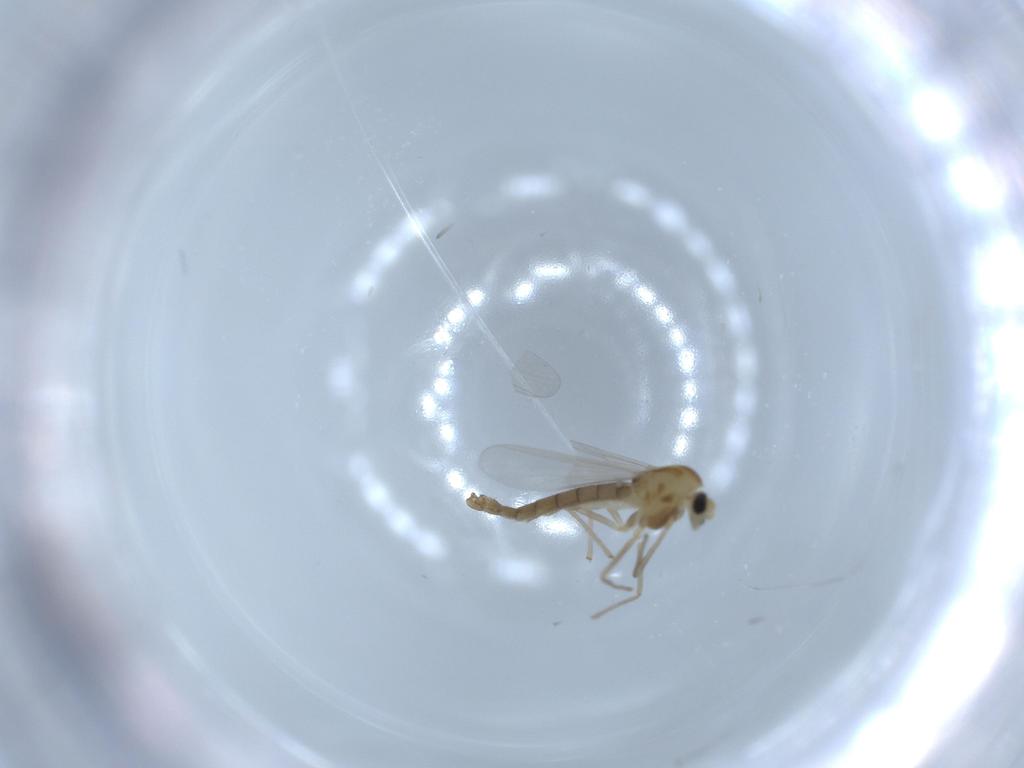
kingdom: Animalia
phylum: Arthropoda
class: Insecta
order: Diptera
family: Chironomidae
